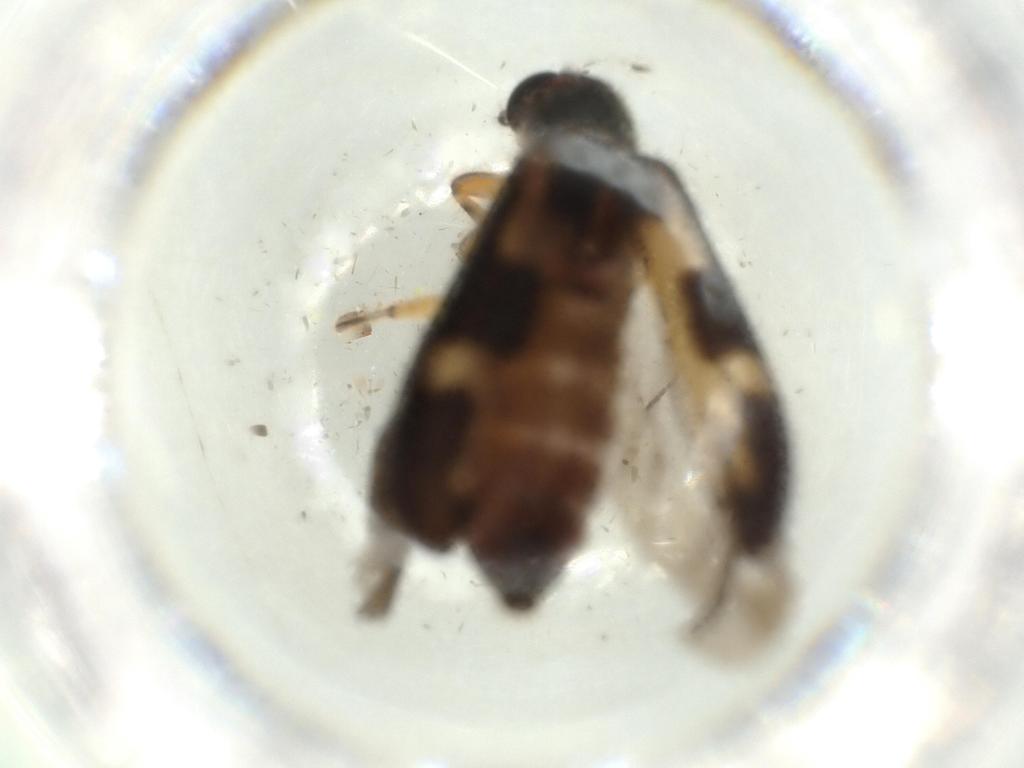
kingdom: Animalia
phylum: Arthropoda
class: Insecta
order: Coleoptera
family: Cleridae
